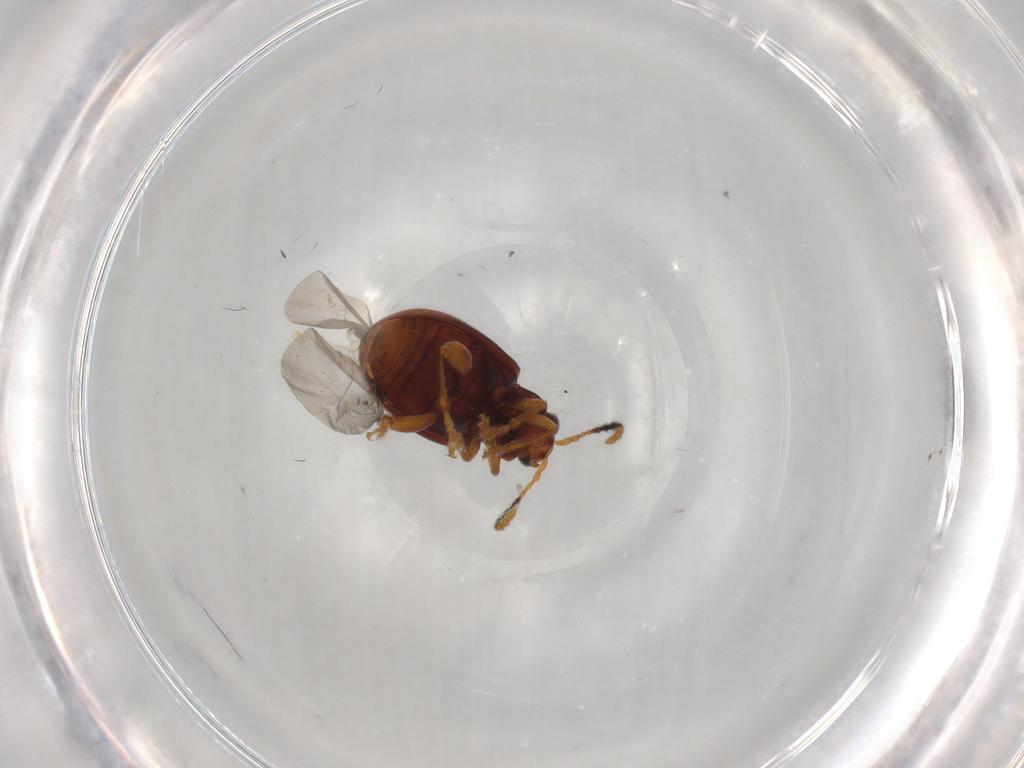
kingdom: Animalia
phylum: Arthropoda
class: Insecta
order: Coleoptera
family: Chrysomelidae
